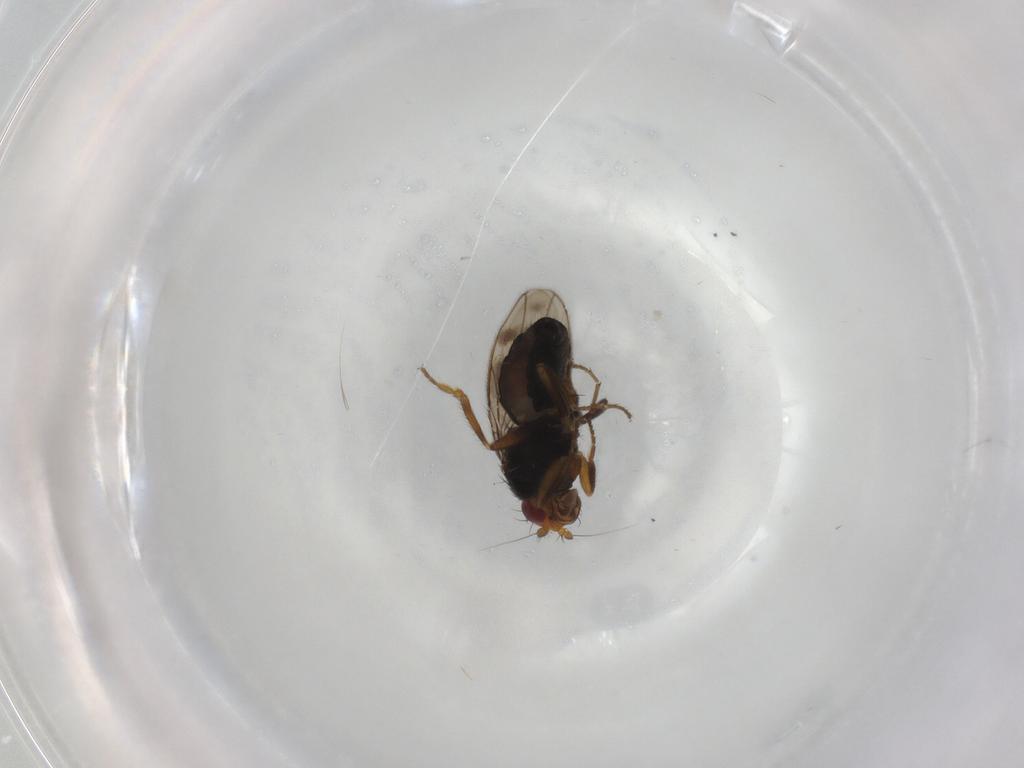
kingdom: Animalia
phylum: Arthropoda
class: Insecta
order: Diptera
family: Sphaeroceridae
